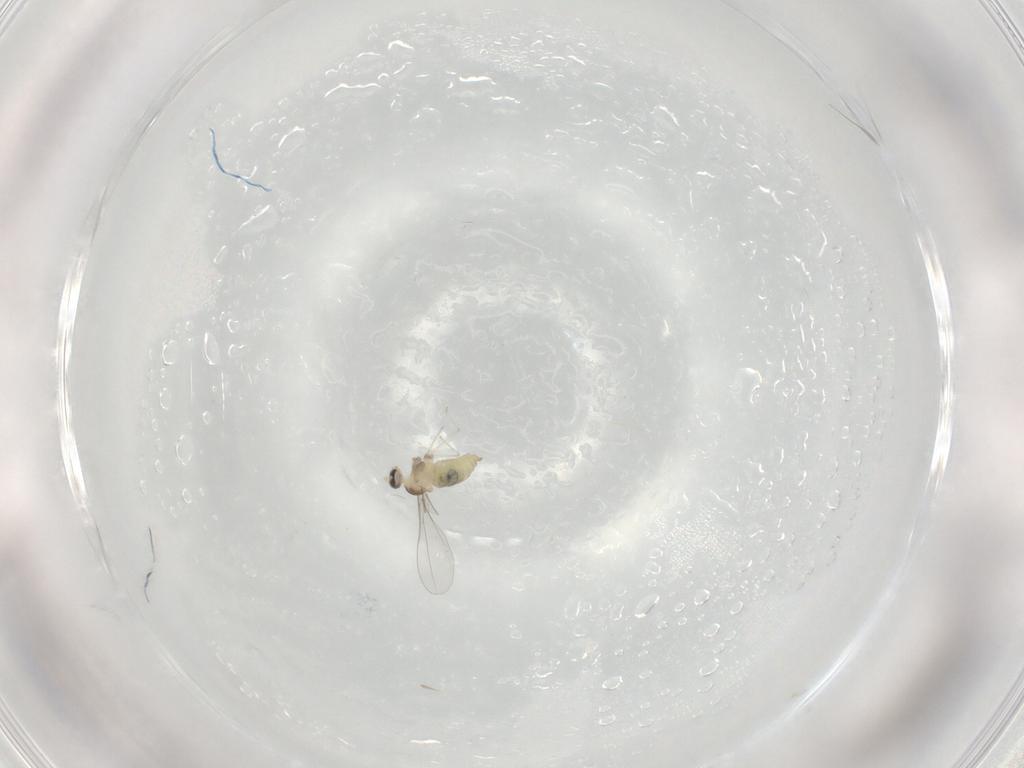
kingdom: Animalia
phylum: Arthropoda
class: Insecta
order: Diptera
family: Cecidomyiidae
